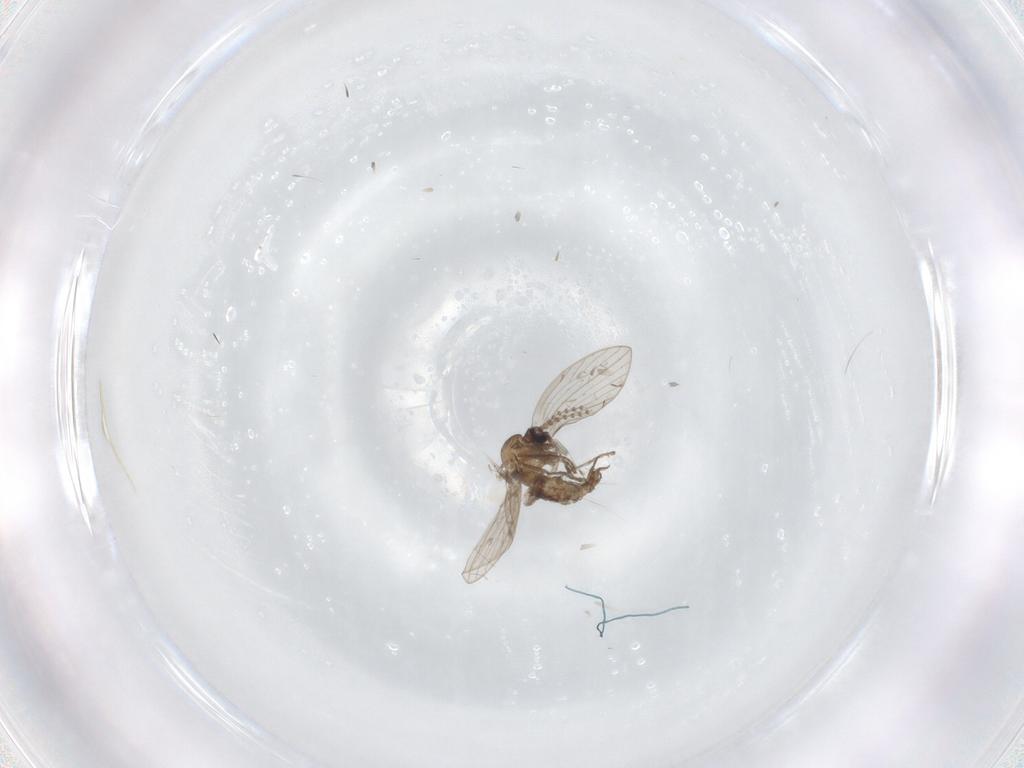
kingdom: Animalia
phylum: Arthropoda
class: Insecta
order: Diptera
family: Psychodidae
